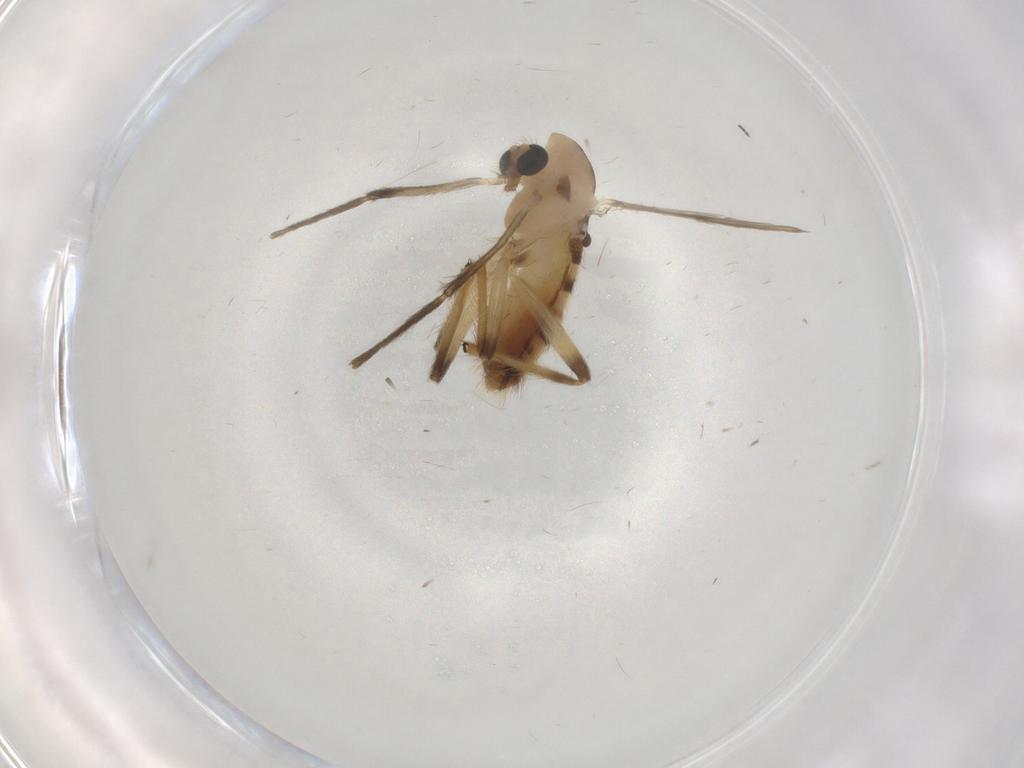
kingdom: Animalia
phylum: Arthropoda
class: Insecta
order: Diptera
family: Chironomidae
